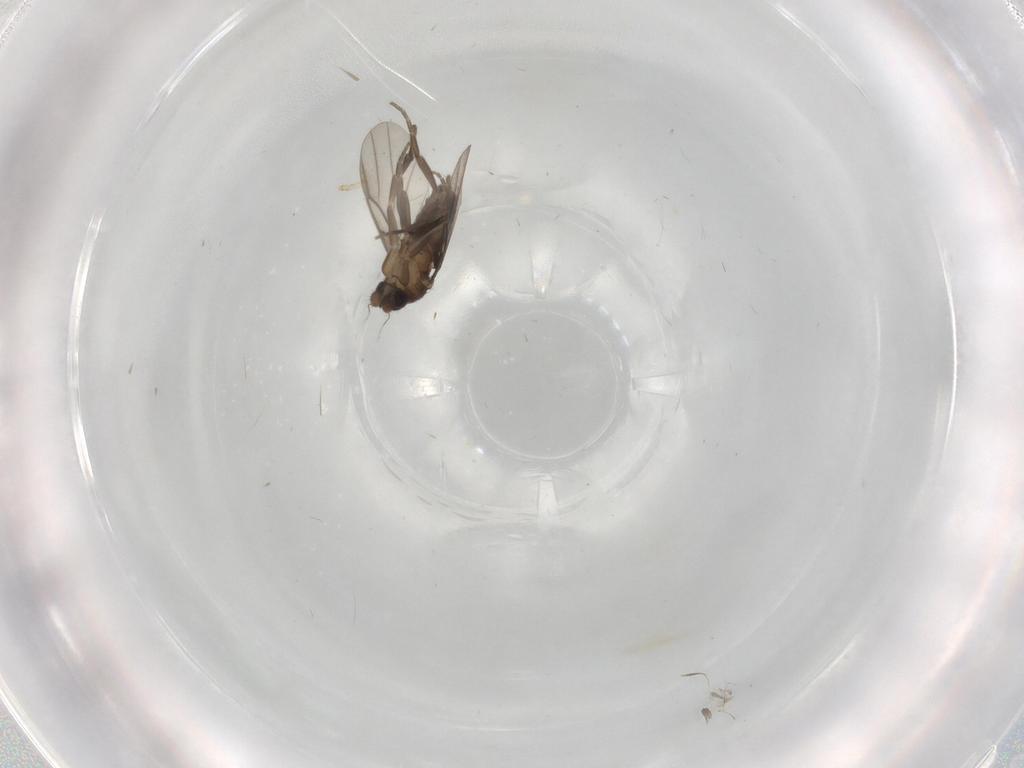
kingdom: Animalia
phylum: Arthropoda
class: Insecta
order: Diptera
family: Phoridae
